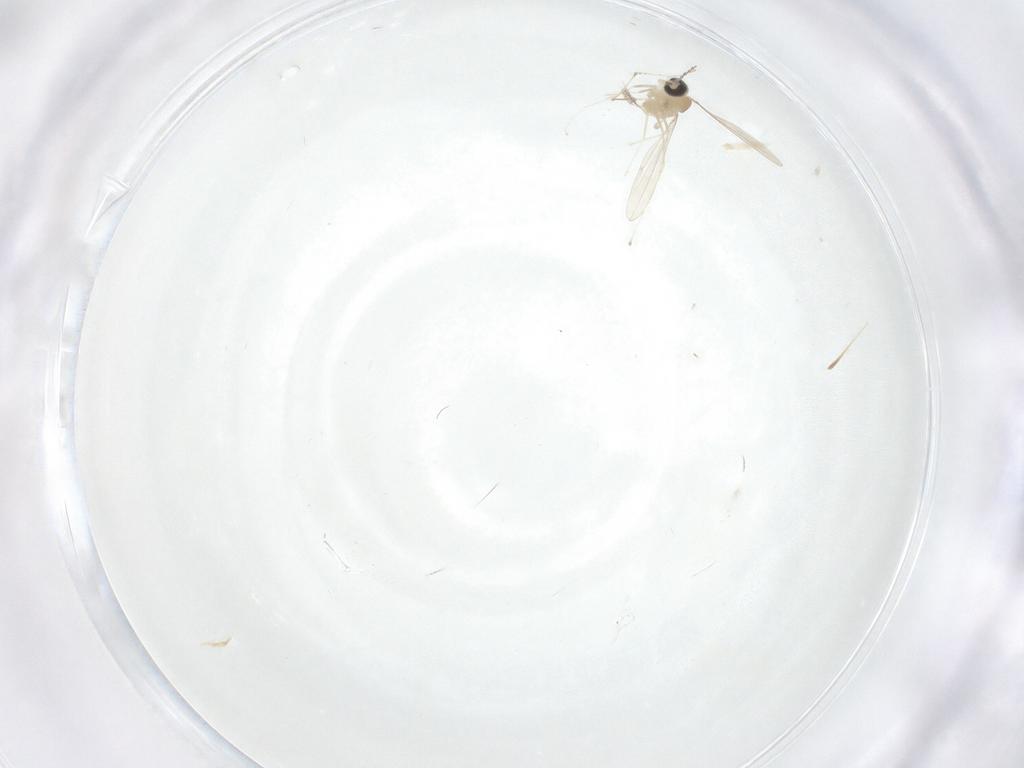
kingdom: Animalia
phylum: Arthropoda
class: Insecta
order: Diptera
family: Cecidomyiidae
